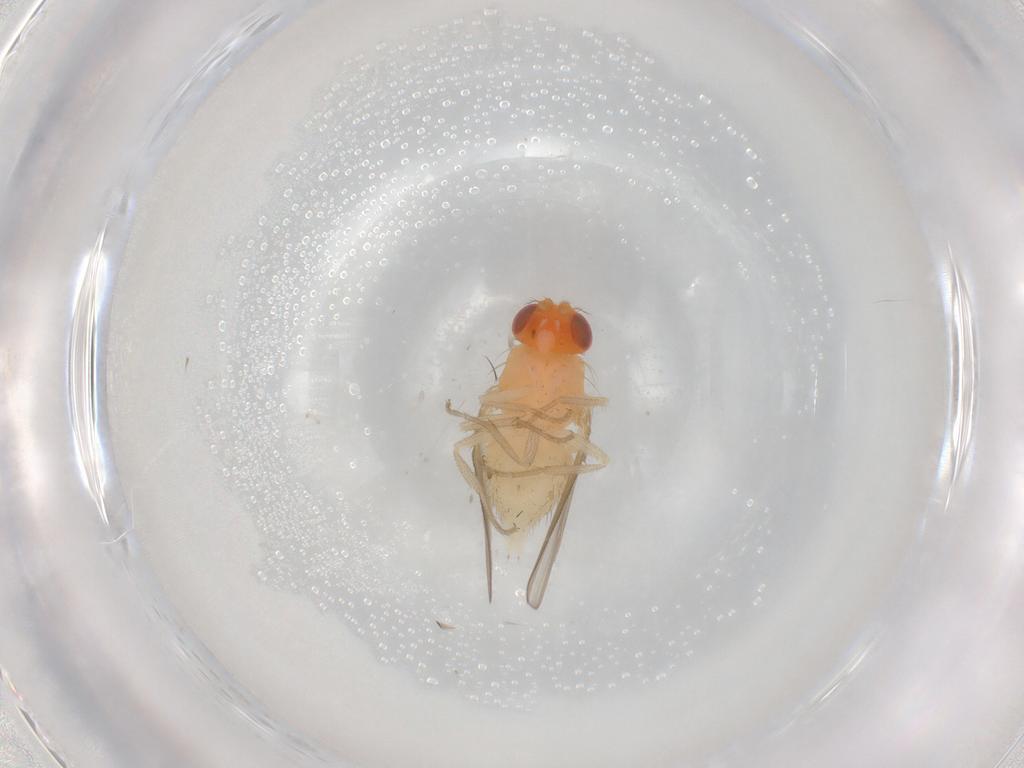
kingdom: Animalia
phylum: Arthropoda
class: Insecta
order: Diptera
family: Drosophilidae
